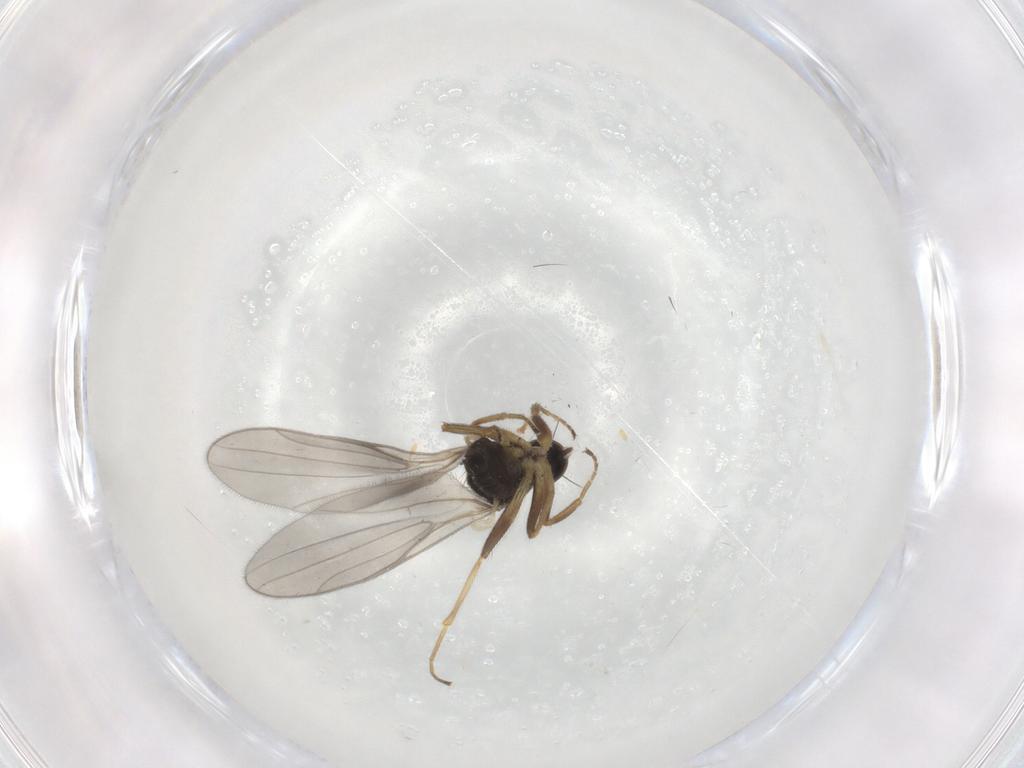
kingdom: Animalia
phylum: Arthropoda
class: Insecta
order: Diptera
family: Hybotidae
